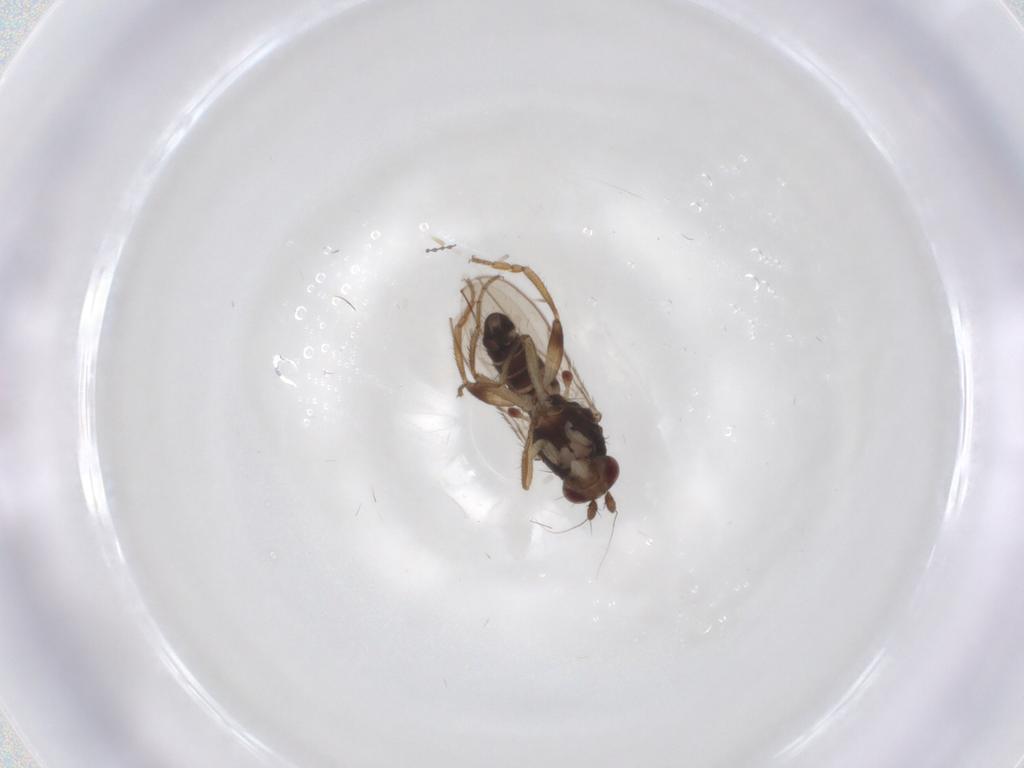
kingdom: Animalia
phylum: Arthropoda
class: Insecta
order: Diptera
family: Sphaeroceridae
